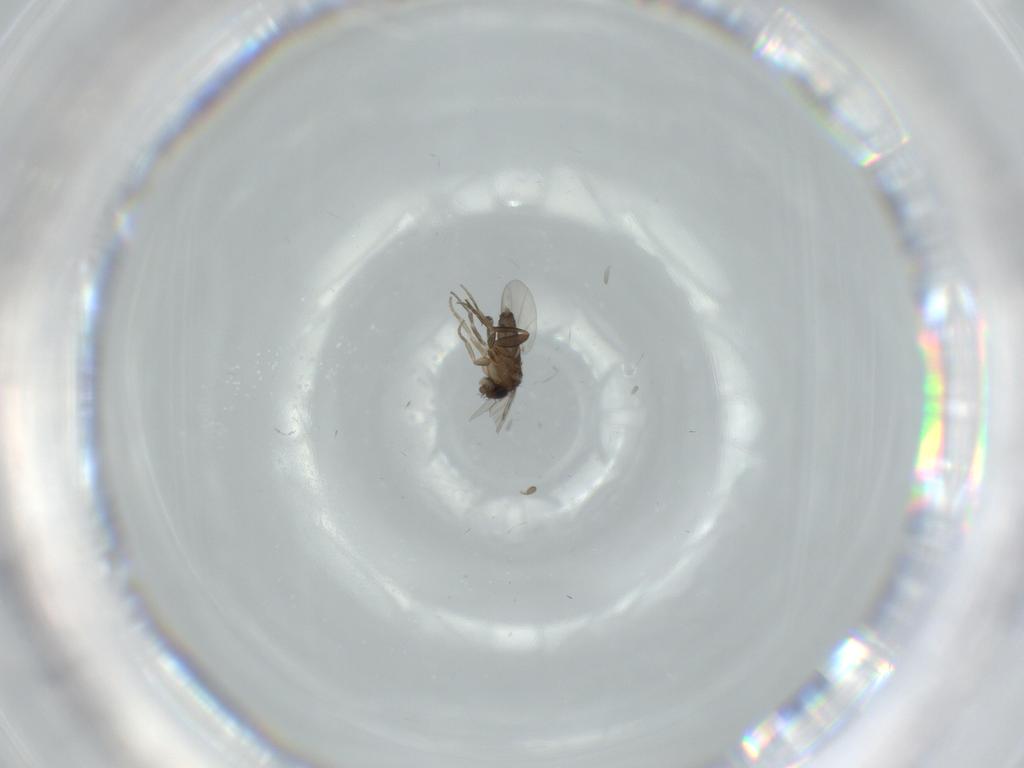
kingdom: Animalia
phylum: Arthropoda
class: Insecta
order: Diptera
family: Phoridae
